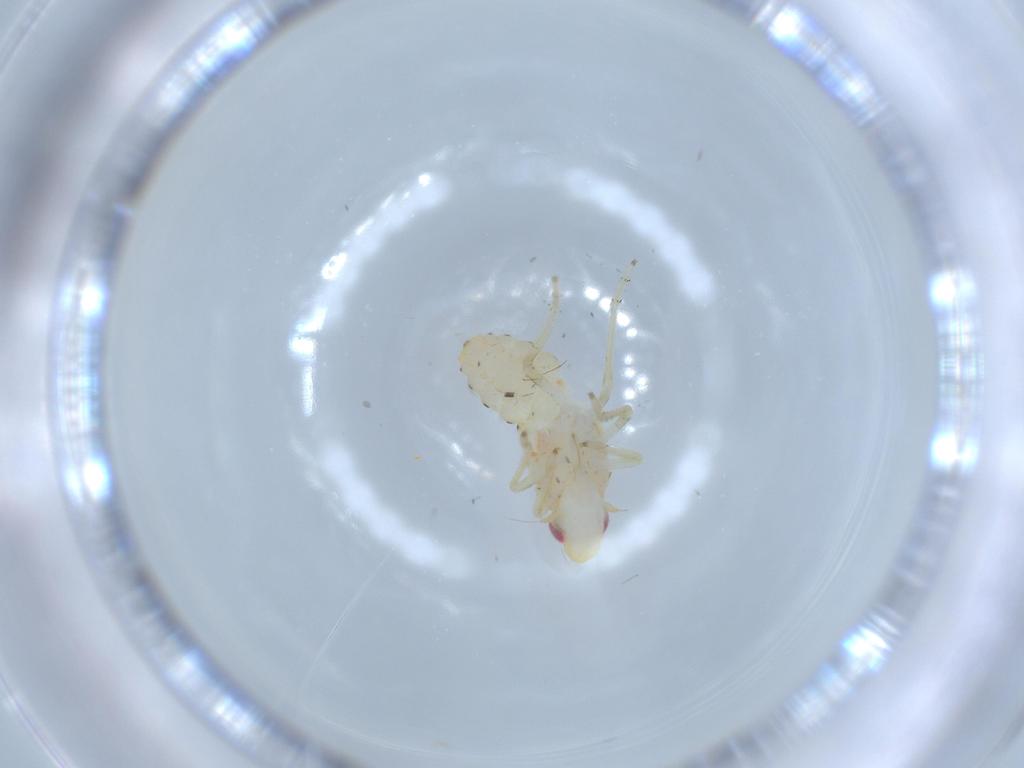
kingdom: Animalia
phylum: Arthropoda
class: Insecta
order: Hemiptera
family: Tropiduchidae
